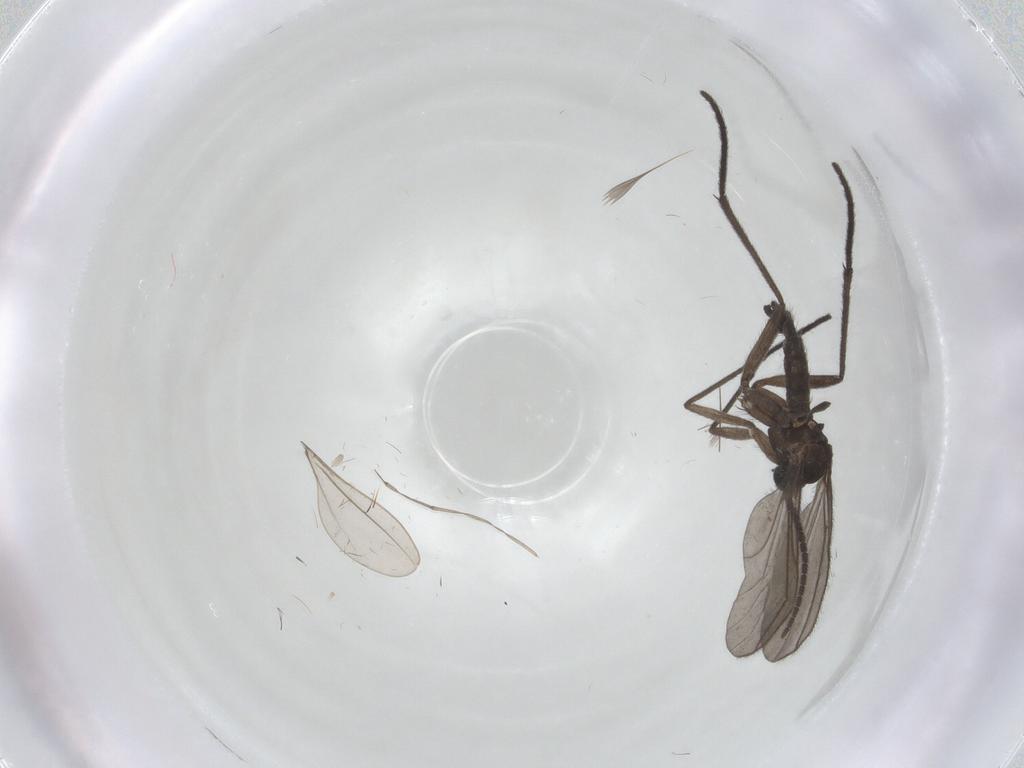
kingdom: Animalia
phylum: Arthropoda
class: Insecta
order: Diptera
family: Sciaridae
